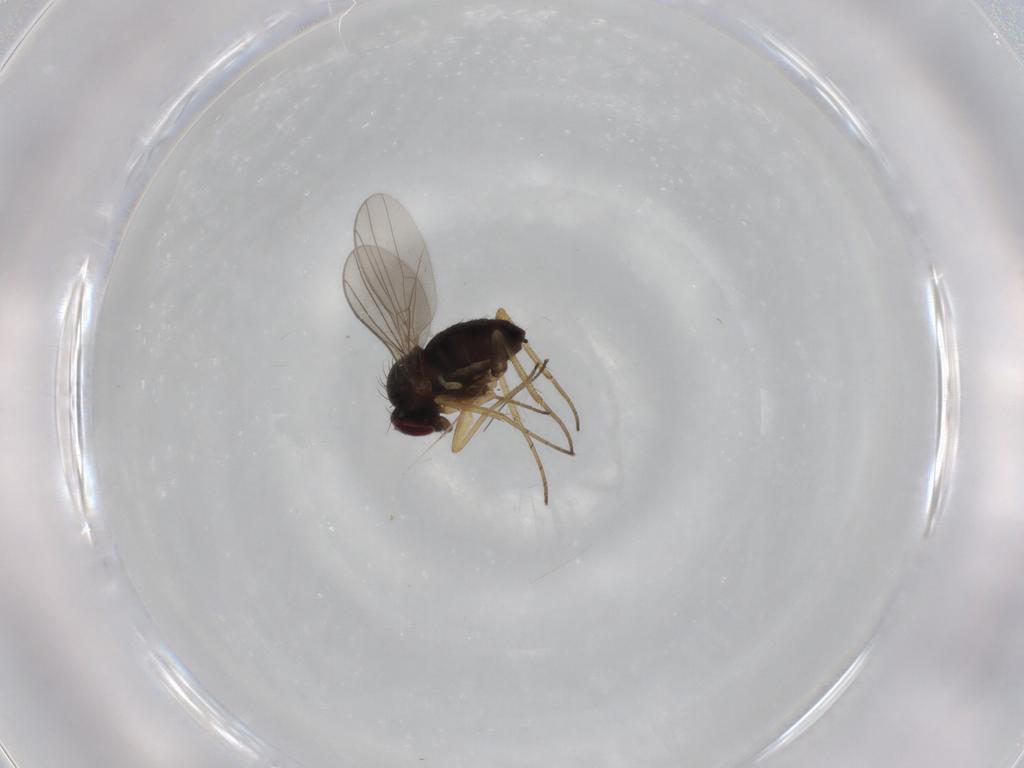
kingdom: Animalia
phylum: Arthropoda
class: Insecta
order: Diptera
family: Dolichopodidae
